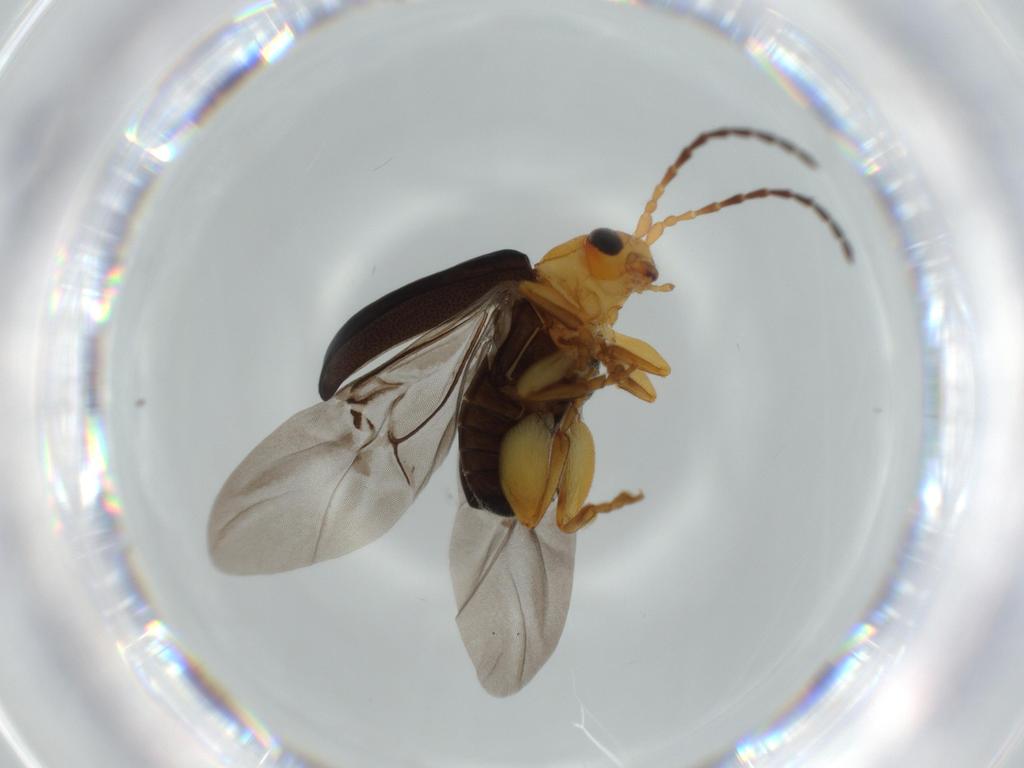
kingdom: Animalia
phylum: Arthropoda
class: Insecta
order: Coleoptera
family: Chrysomelidae
